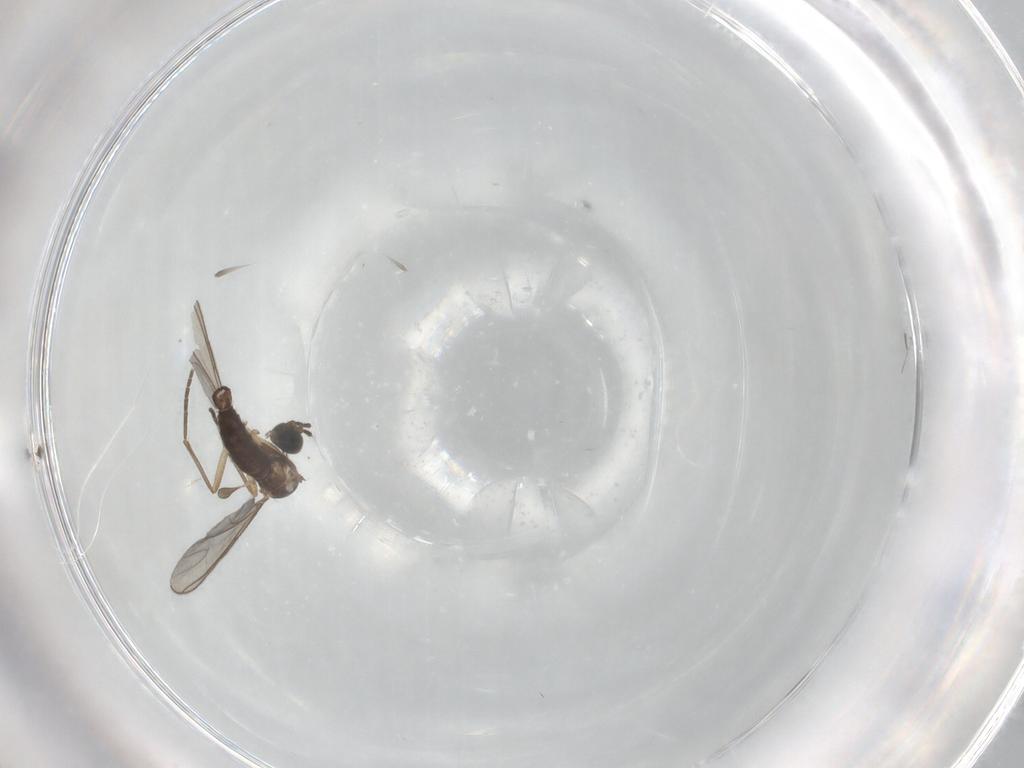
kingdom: Animalia
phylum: Arthropoda
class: Insecta
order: Diptera
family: Sciaridae
